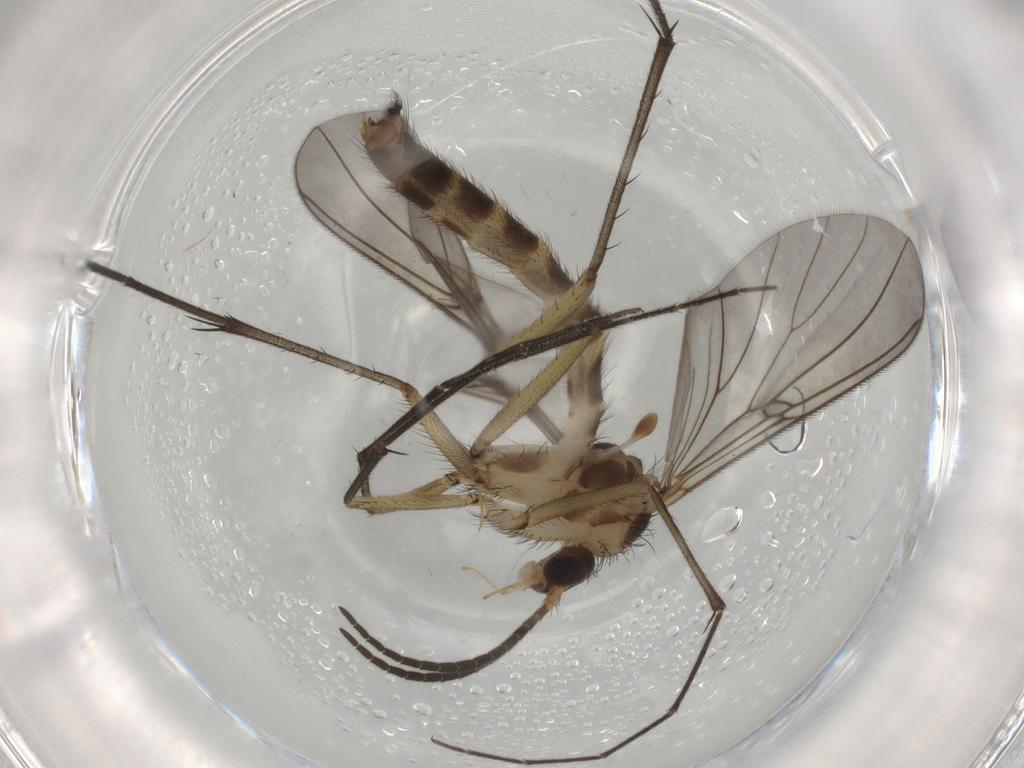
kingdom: Animalia
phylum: Arthropoda
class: Insecta
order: Diptera
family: Mycetophilidae
